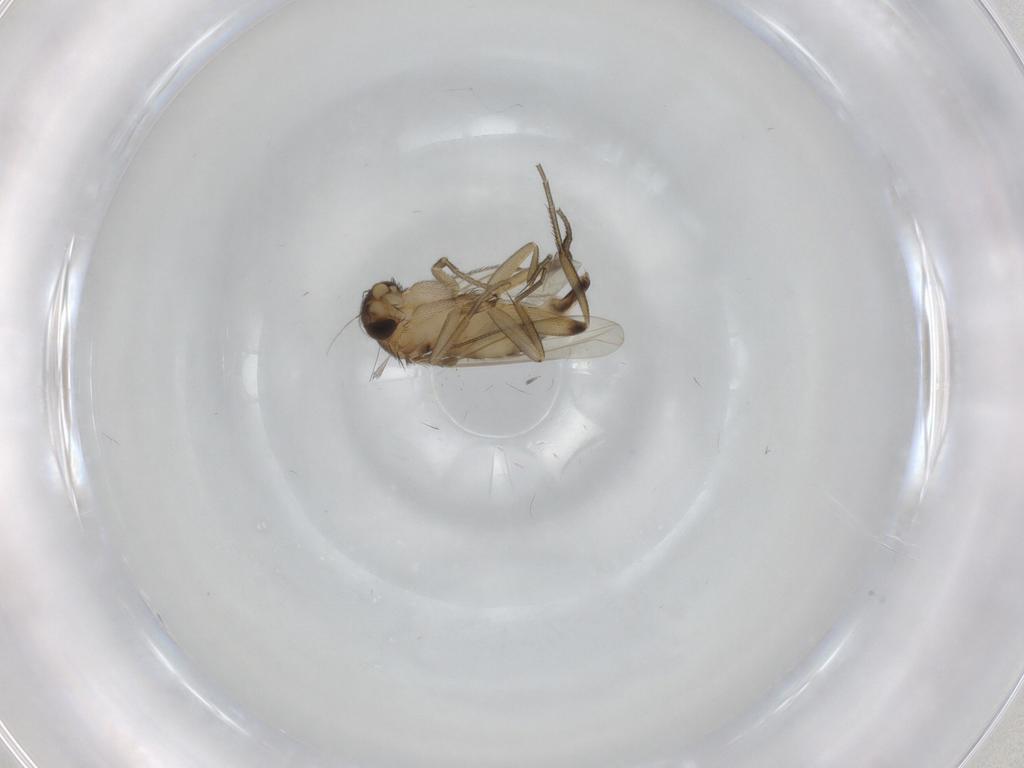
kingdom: Animalia
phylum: Arthropoda
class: Insecta
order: Diptera
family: Phoridae
